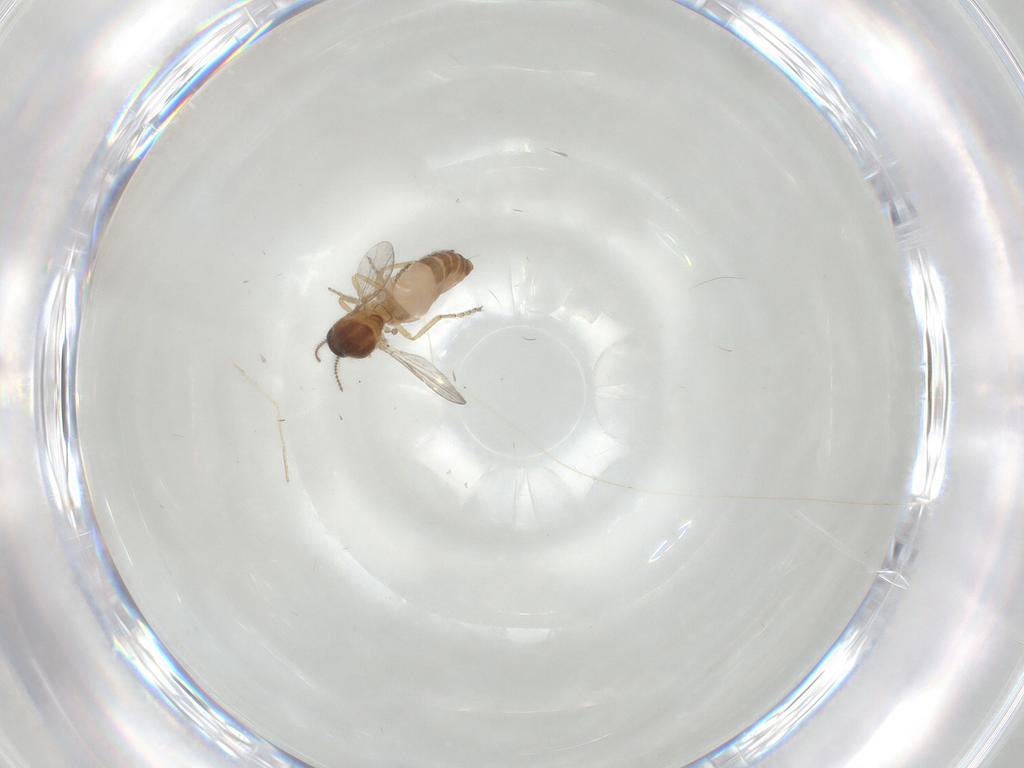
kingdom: Animalia
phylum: Arthropoda
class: Insecta
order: Diptera
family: Ceratopogonidae
